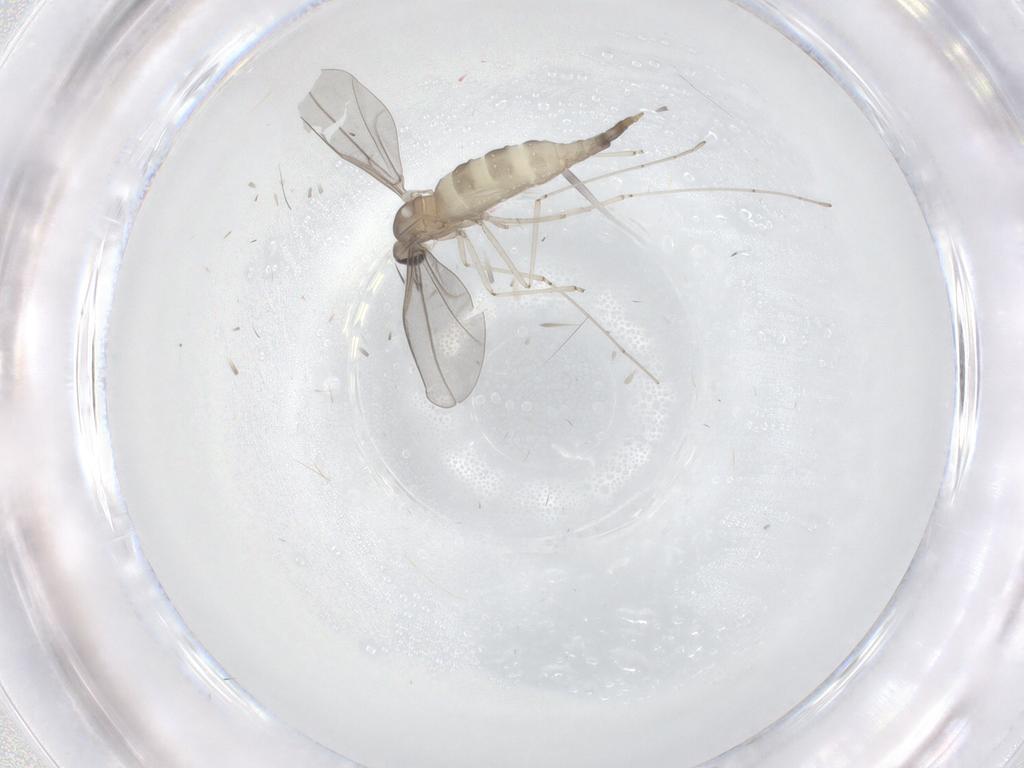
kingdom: Animalia
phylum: Arthropoda
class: Insecta
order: Diptera
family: Cecidomyiidae
